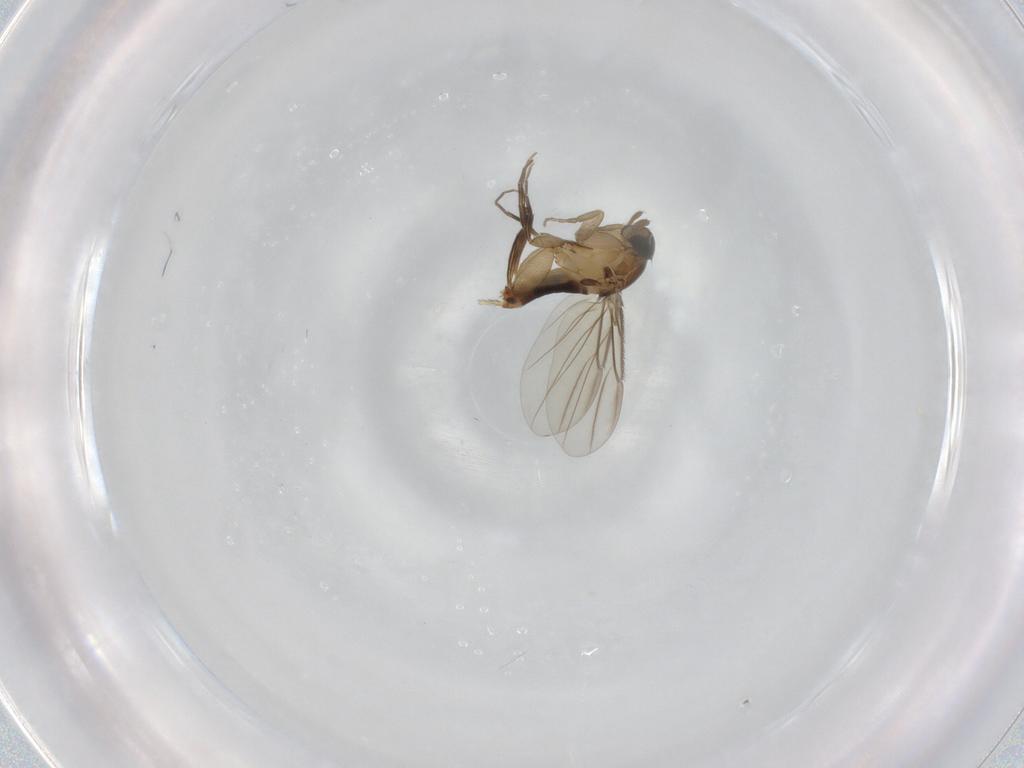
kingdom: Animalia
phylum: Arthropoda
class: Insecta
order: Diptera
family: Phoridae
